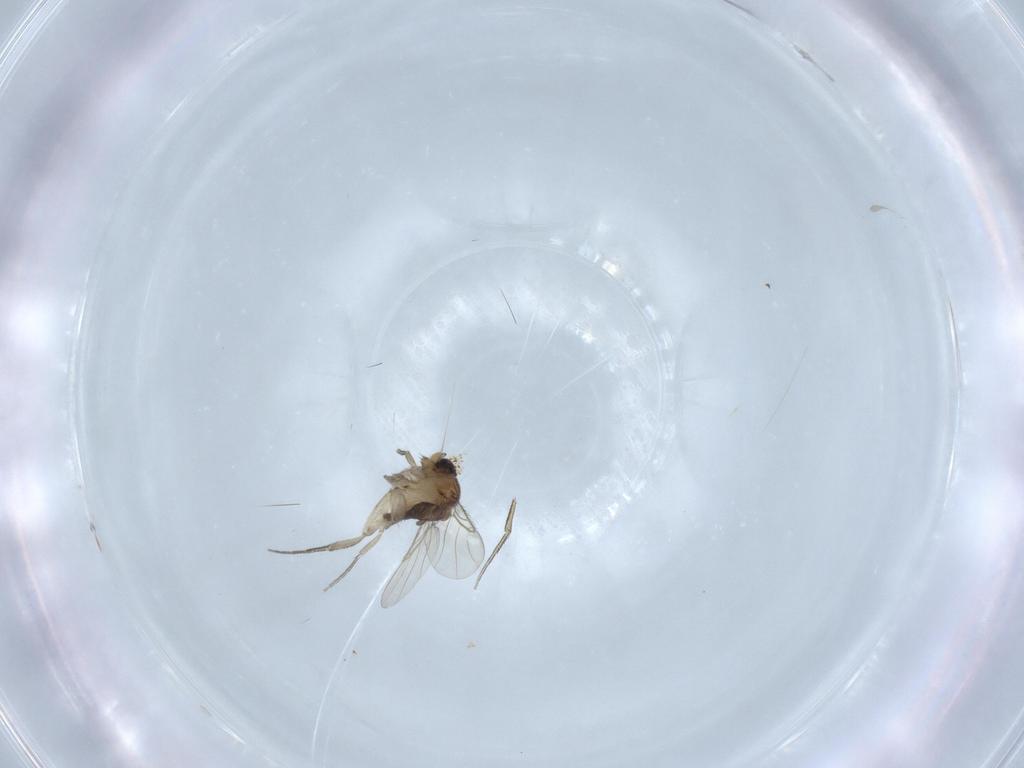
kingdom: Animalia
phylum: Arthropoda
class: Insecta
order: Diptera
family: Phoridae
